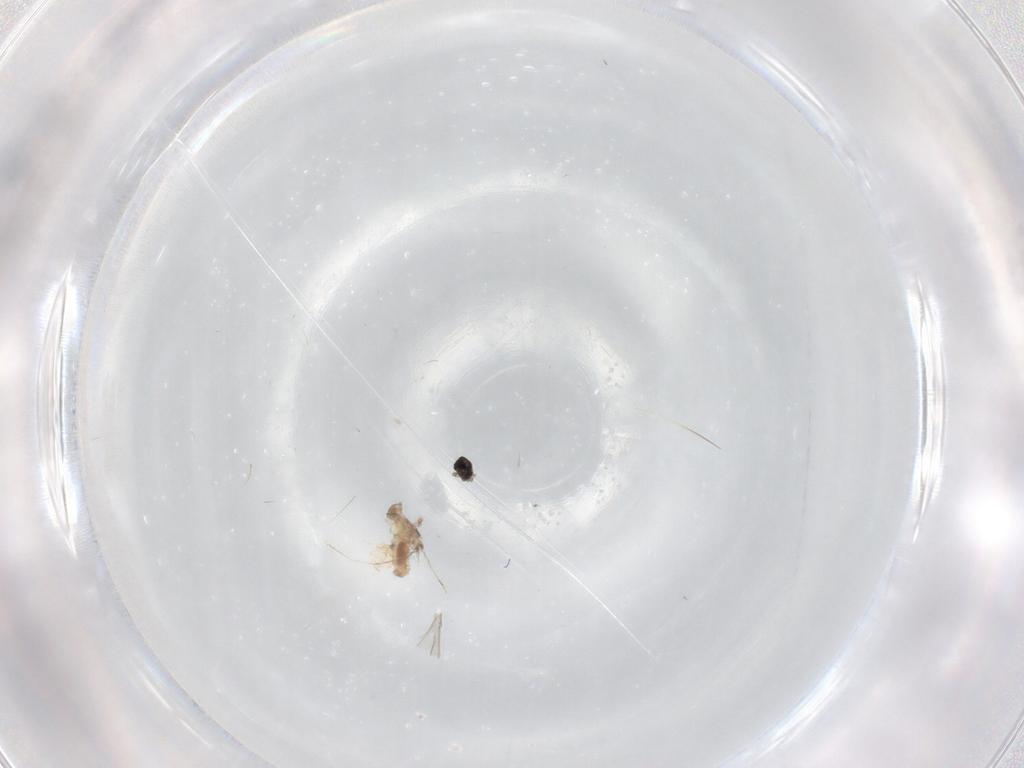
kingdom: Animalia
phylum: Arthropoda
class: Insecta
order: Diptera
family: Cecidomyiidae
